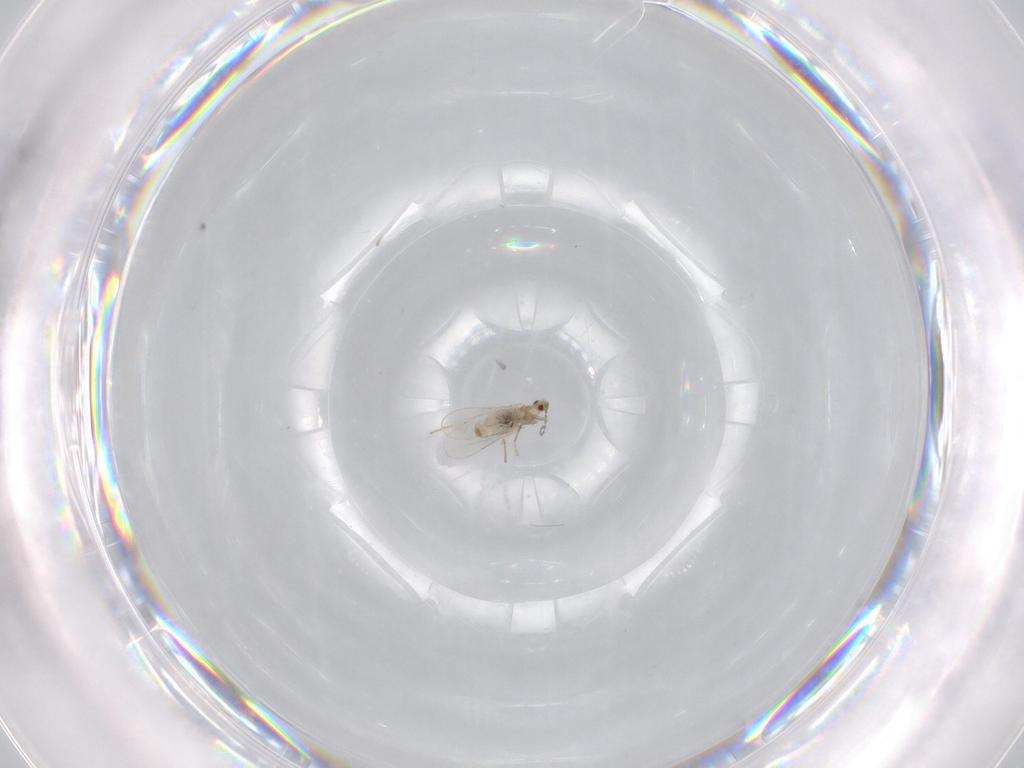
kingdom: Animalia
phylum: Arthropoda
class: Insecta
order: Diptera
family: Cecidomyiidae
